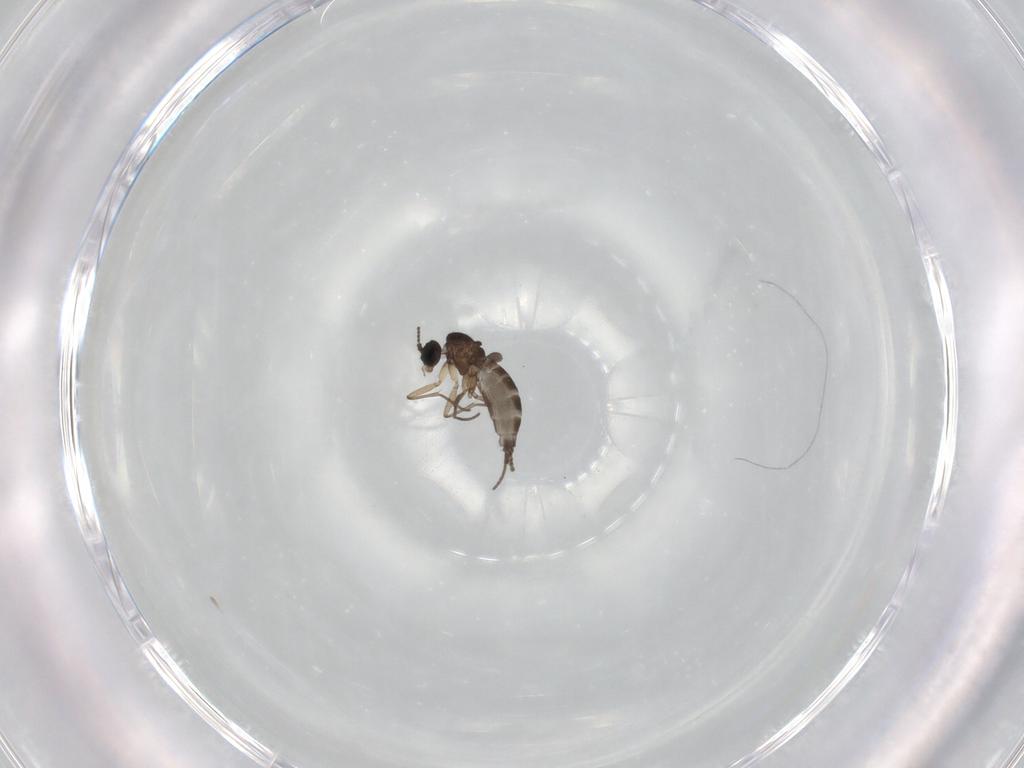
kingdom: Animalia
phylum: Arthropoda
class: Insecta
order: Diptera
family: Sciaridae
